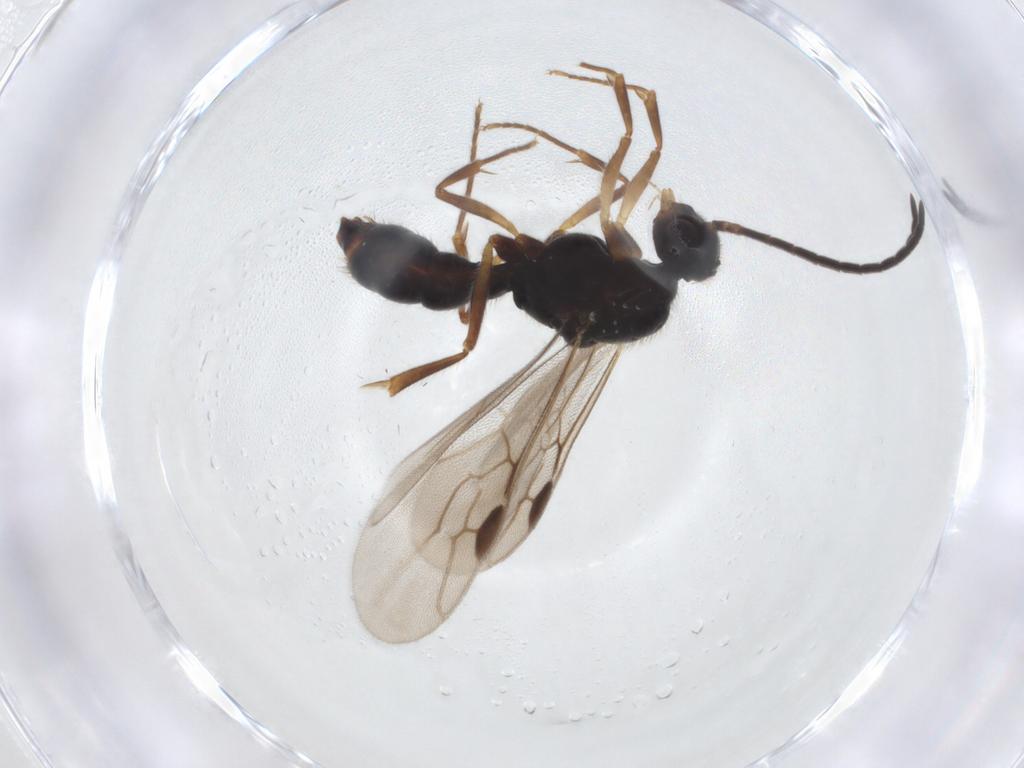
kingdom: Animalia
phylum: Arthropoda
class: Insecta
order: Hymenoptera
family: Formicidae
